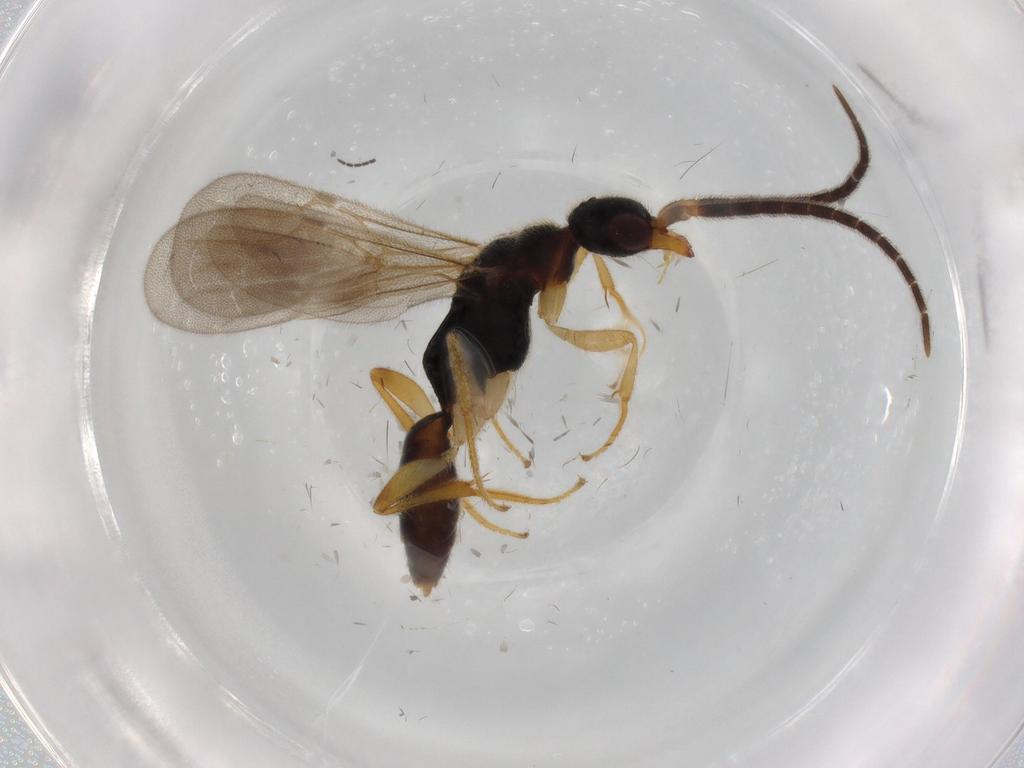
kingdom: Animalia
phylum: Arthropoda
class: Insecta
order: Hymenoptera
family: Bethylidae
